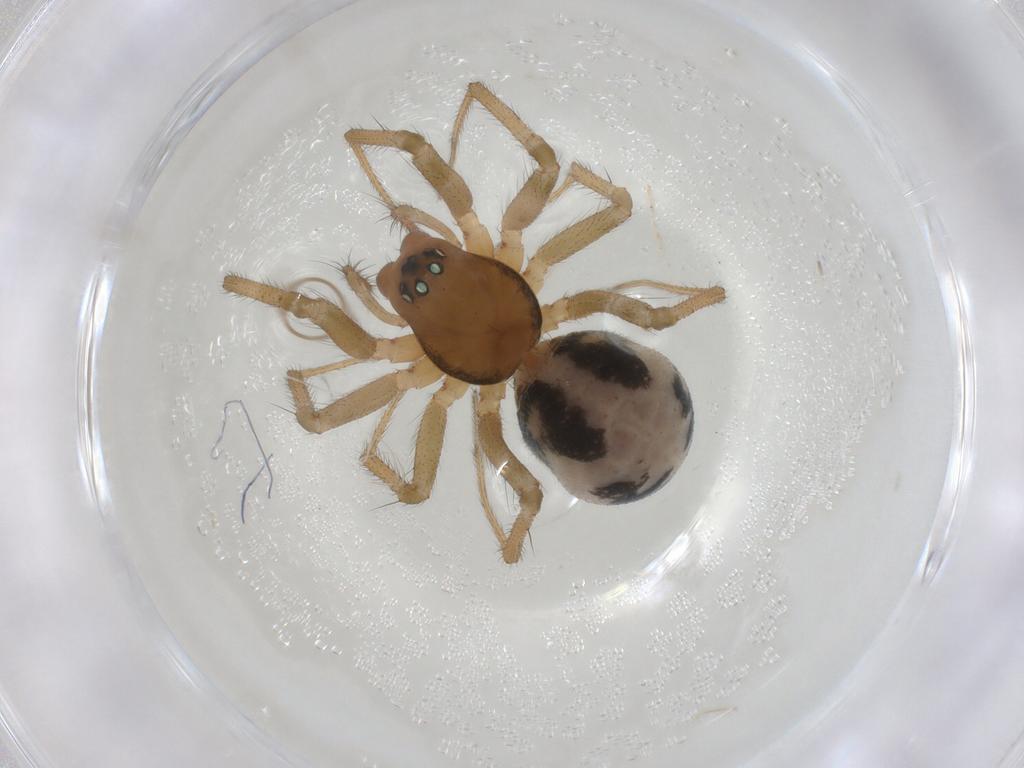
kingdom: Animalia
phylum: Arthropoda
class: Arachnida
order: Araneae
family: Linyphiidae
